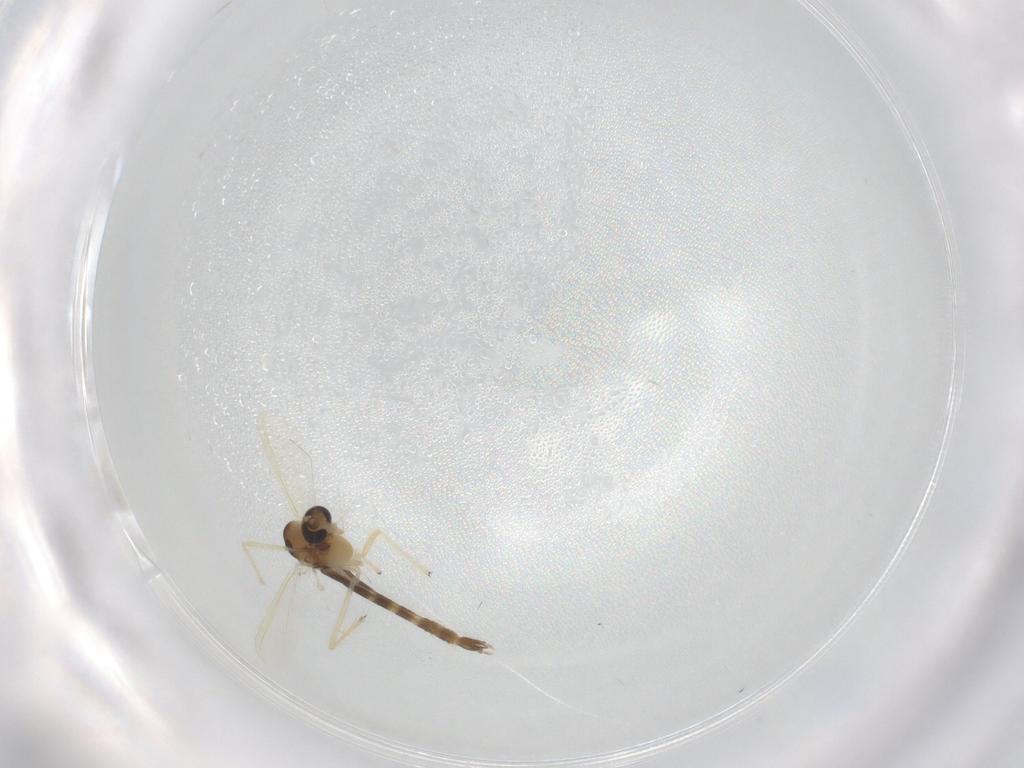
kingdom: Animalia
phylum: Arthropoda
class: Insecta
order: Diptera
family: Chironomidae
